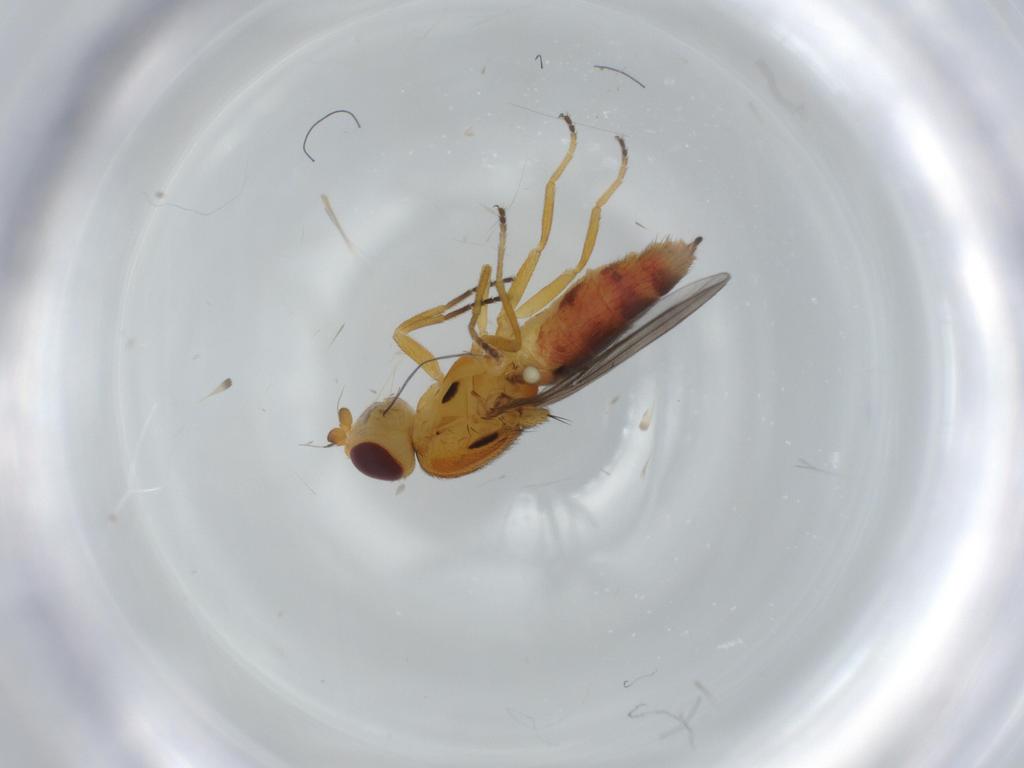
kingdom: Animalia
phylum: Arthropoda
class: Insecta
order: Diptera
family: Chloropidae
